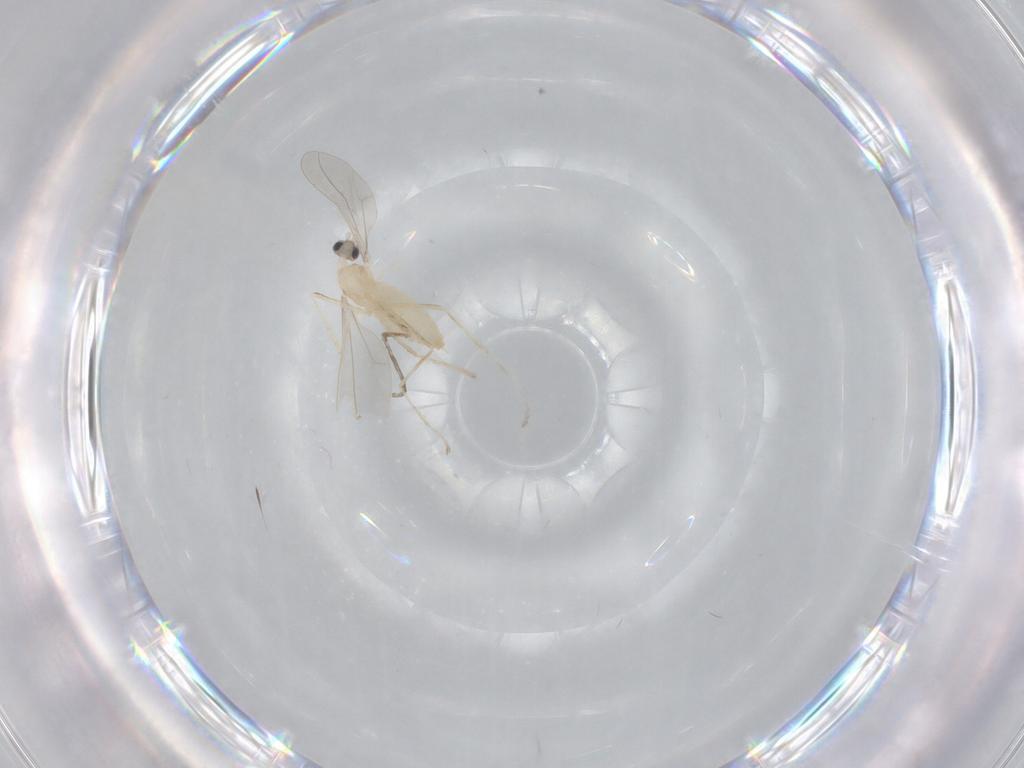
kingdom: Animalia
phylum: Arthropoda
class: Insecta
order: Diptera
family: Cecidomyiidae
